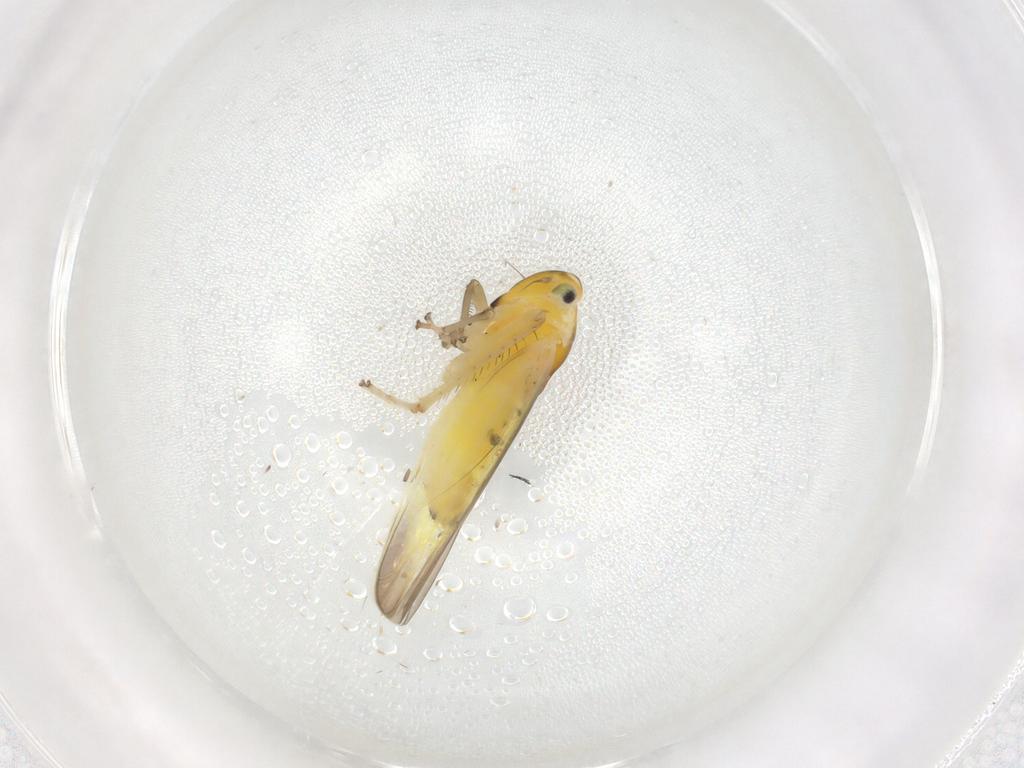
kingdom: Animalia
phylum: Arthropoda
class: Insecta
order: Hemiptera
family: Cicadellidae
